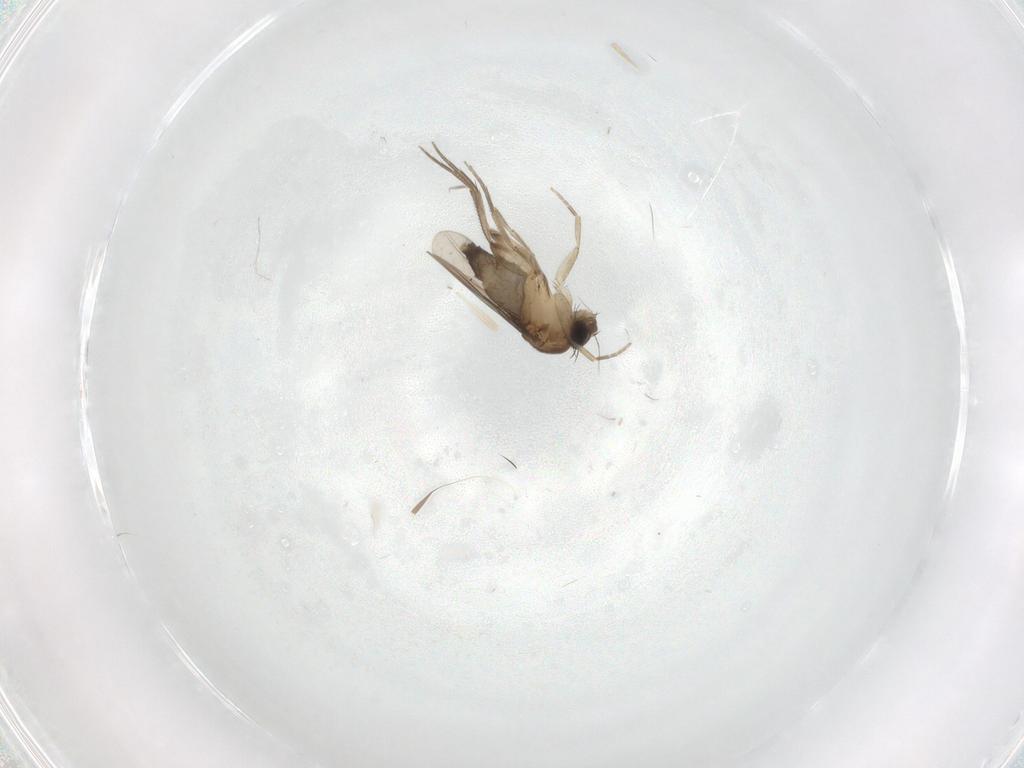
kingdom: Animalia
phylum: Arthropoda
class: Insecta
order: Diptera
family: Phoridae
